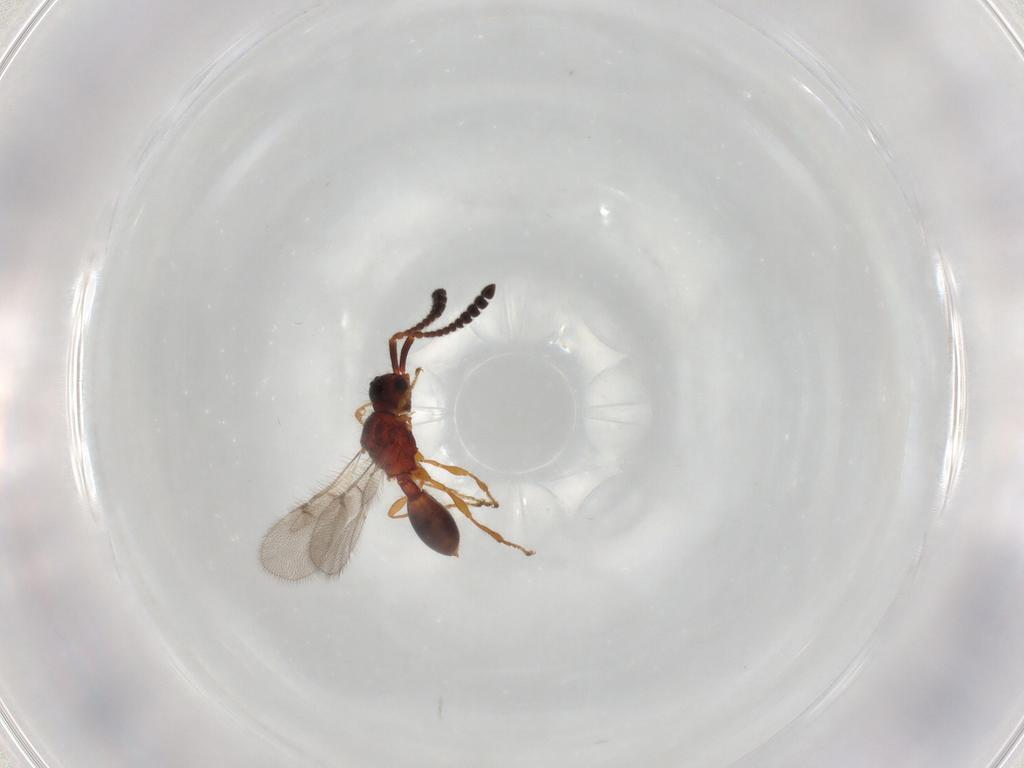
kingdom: Animalia
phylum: Arthropoda
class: Insecta
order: Hymenoptera
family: Diapriidae
